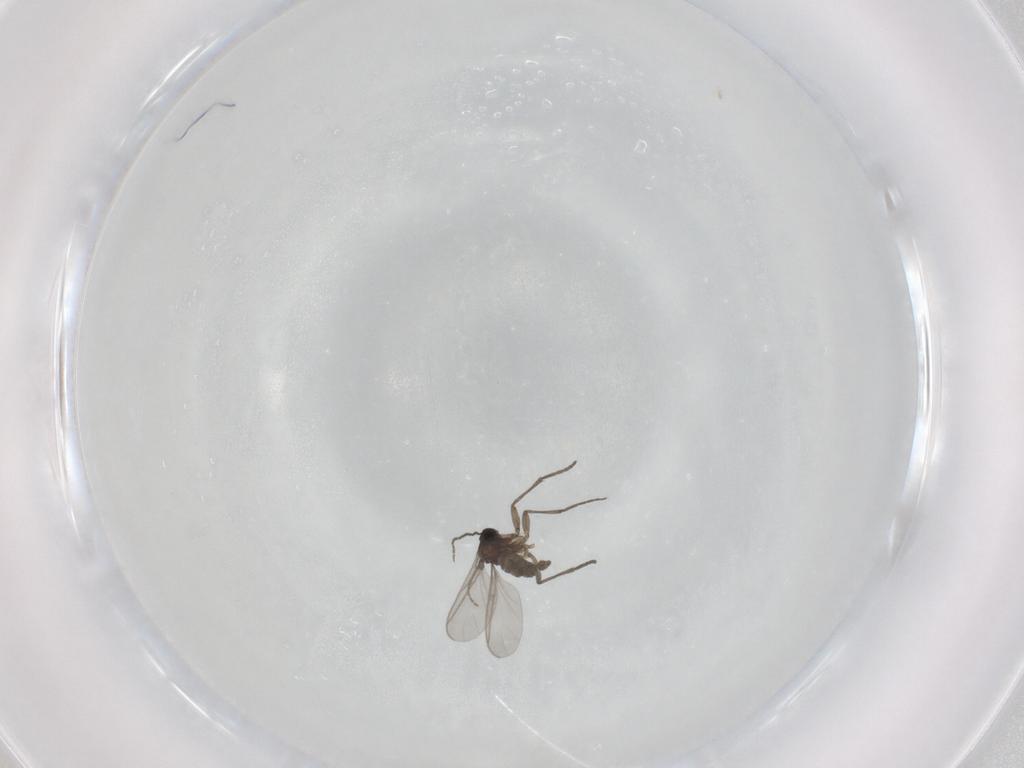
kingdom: Animalia
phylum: Arthropoda
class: Insecta
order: Diptera
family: Sciaridae
